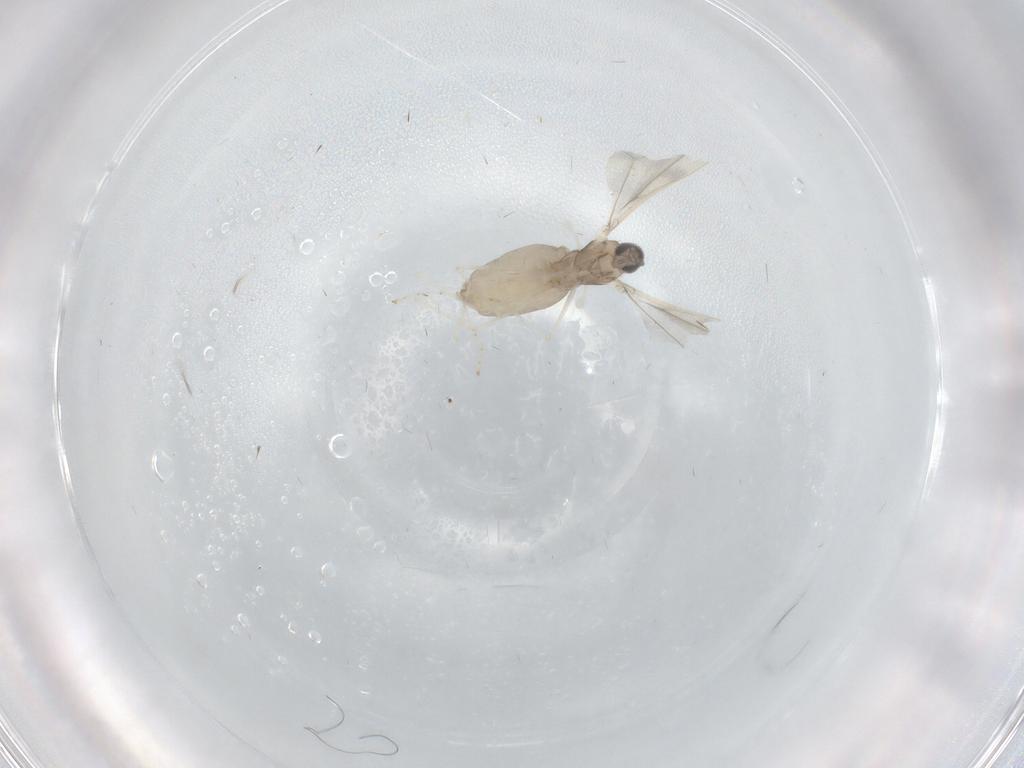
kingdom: Animalia
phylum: Arthropoda
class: Insecta
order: Diptera
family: Cecidomyiidae
